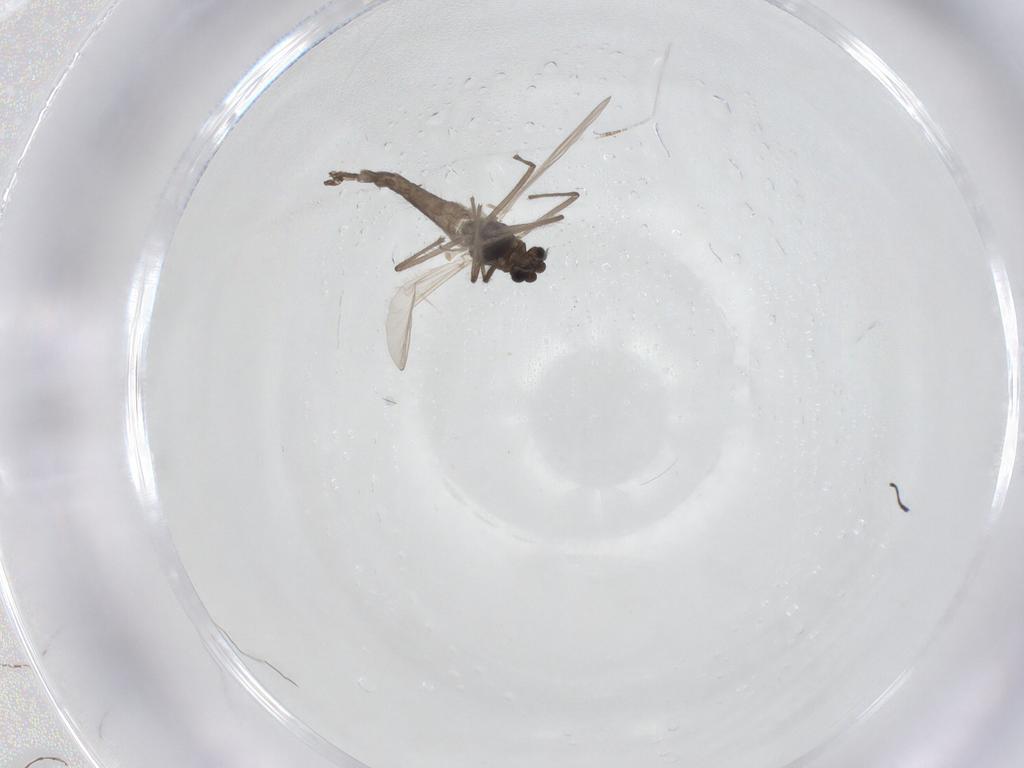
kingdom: Animalia
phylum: Arthropoda
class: Insecta
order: Diptera
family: Chironomidae
